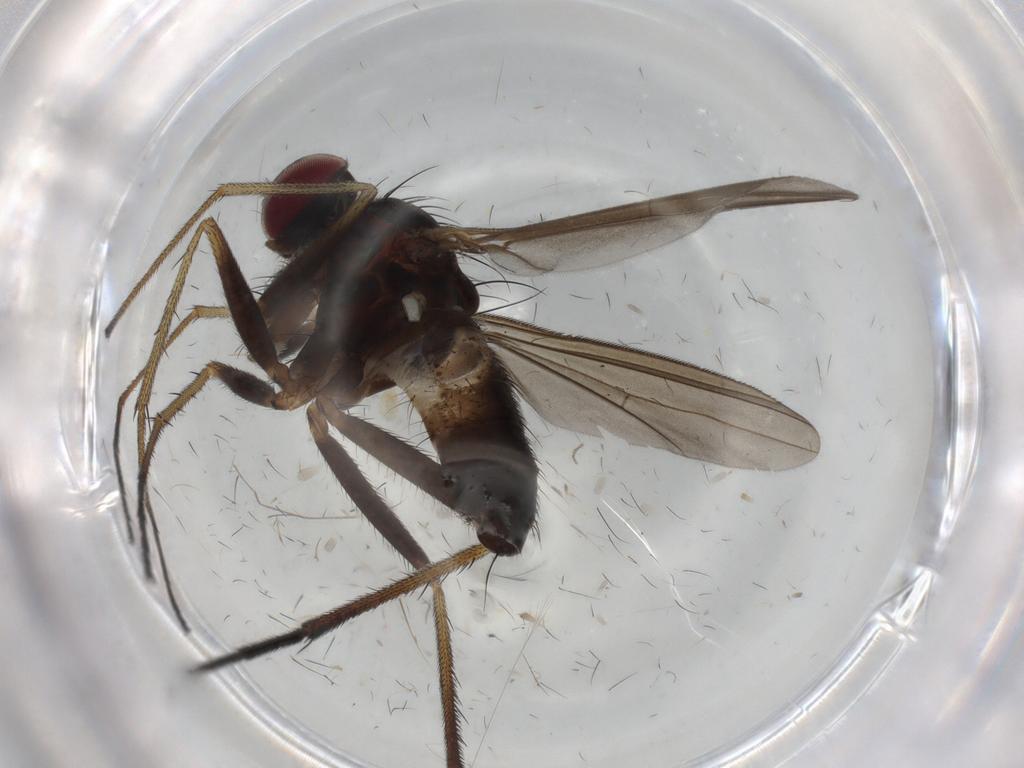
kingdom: Animalia
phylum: Arthropoda
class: Insecta
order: Diptera
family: Dolichopodidae
